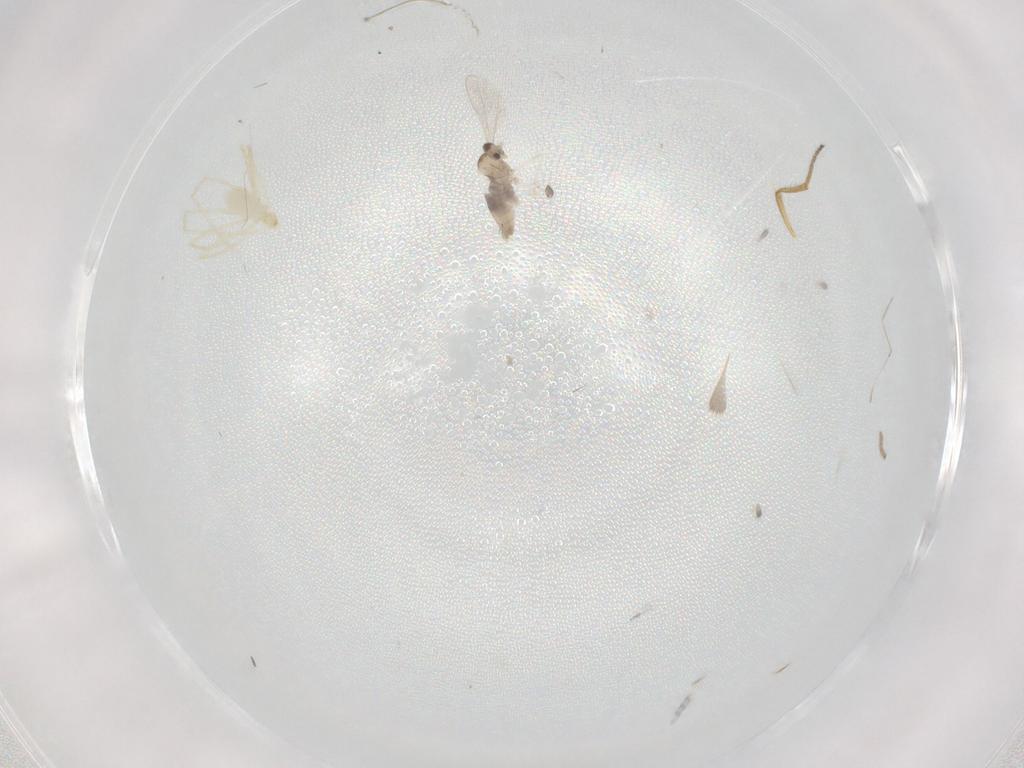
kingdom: Animalia
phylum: Arthropoda
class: Insecta
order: Diptera
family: Cecidomyiidae
